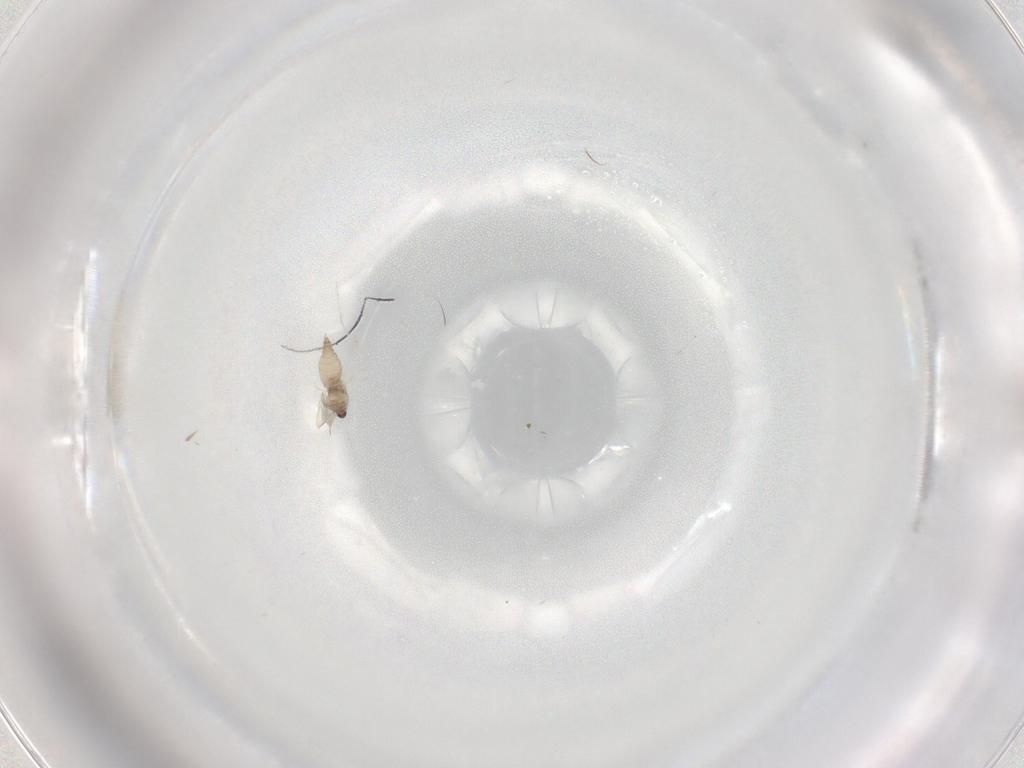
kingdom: Animalia
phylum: Arthropoda
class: Insecta
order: Diptera
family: Cecidomyiidae
